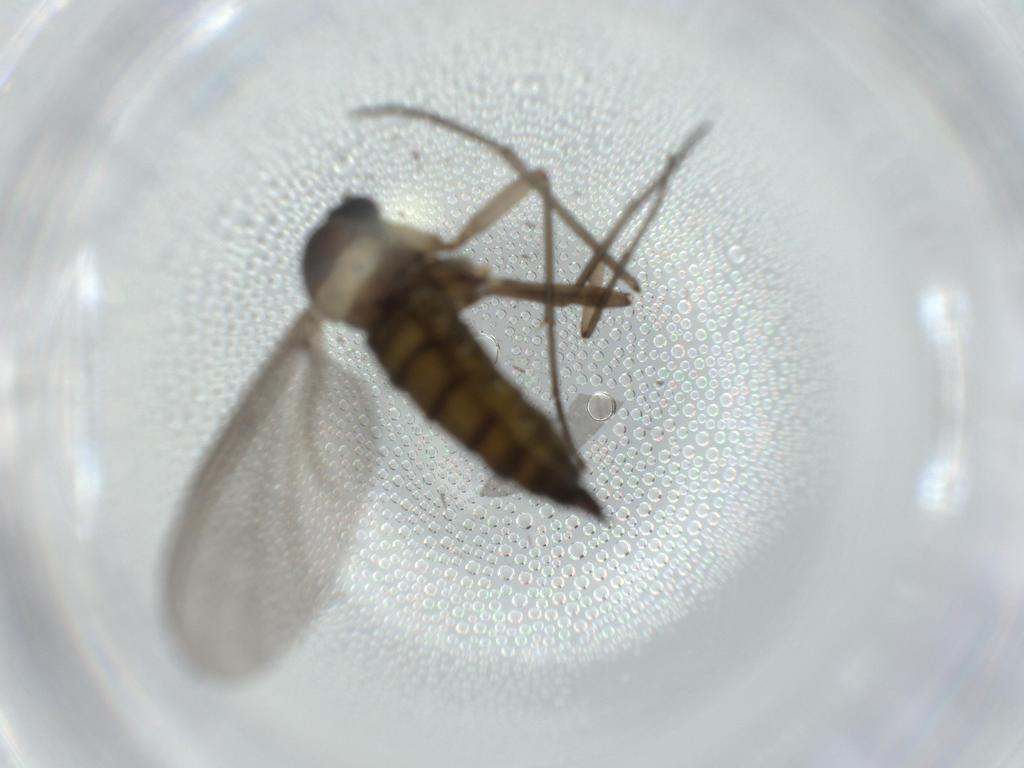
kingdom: Animalia
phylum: Arthropoda
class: Insecta
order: Diptera
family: Sciaridae
